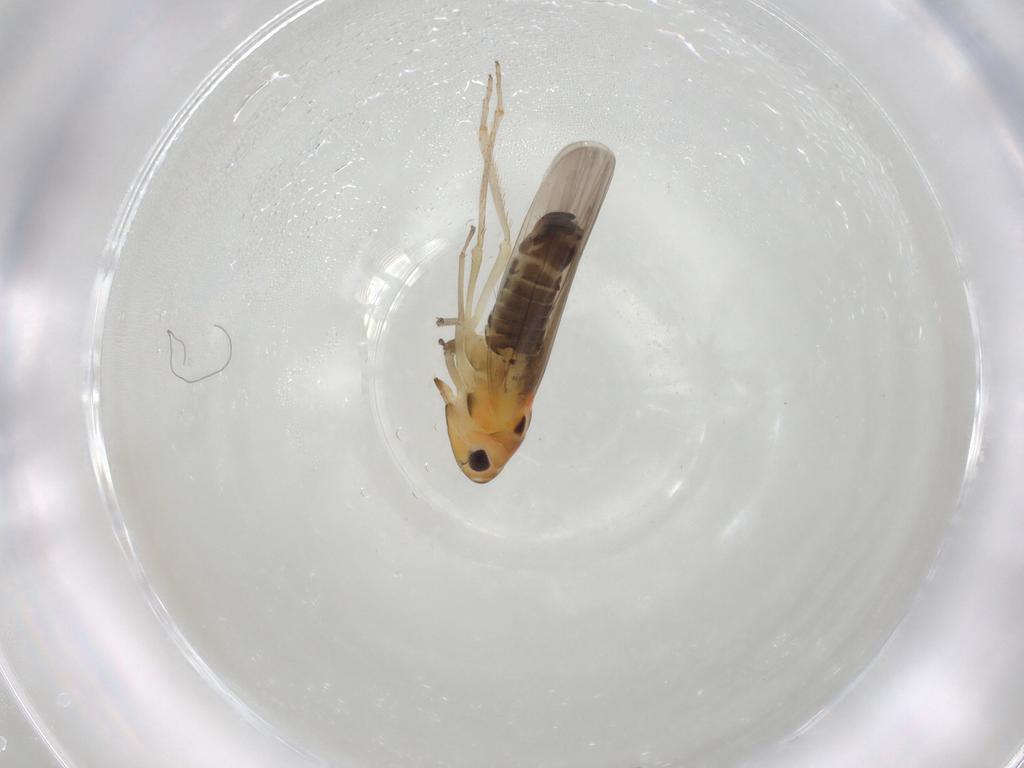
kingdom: Animalia
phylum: Arthropoda
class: Insecta
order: Hemiptera
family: Cicadellidae
